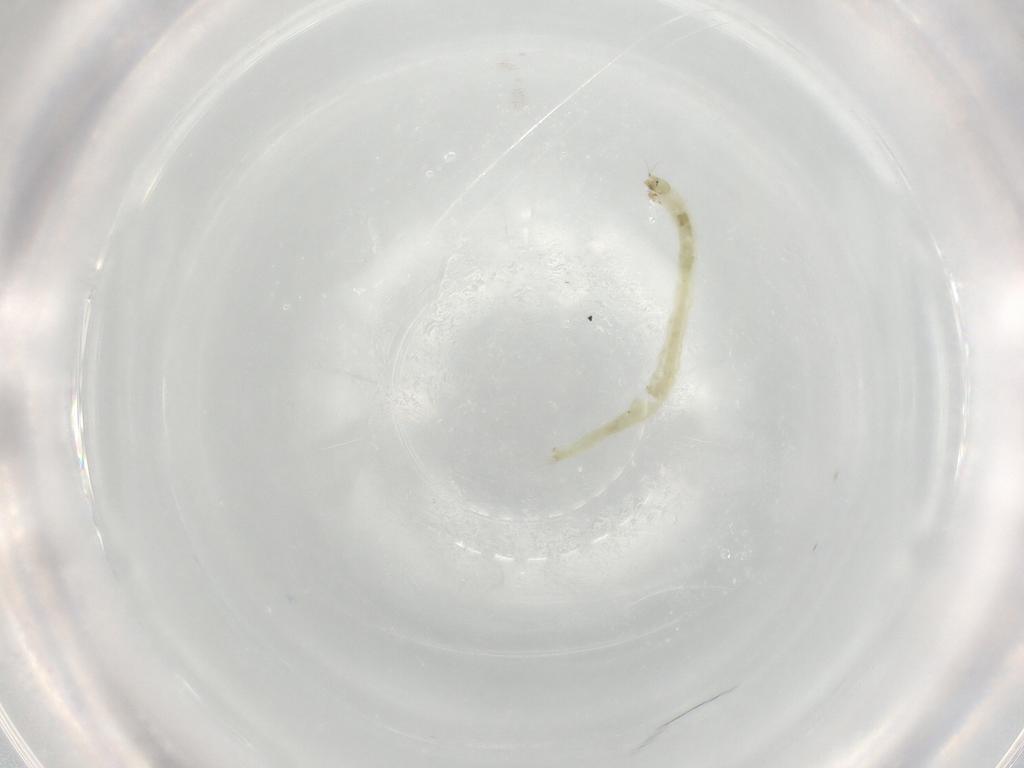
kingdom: Animalia
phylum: Arthropoda
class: Insecta
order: Diptera
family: Chironomidae
